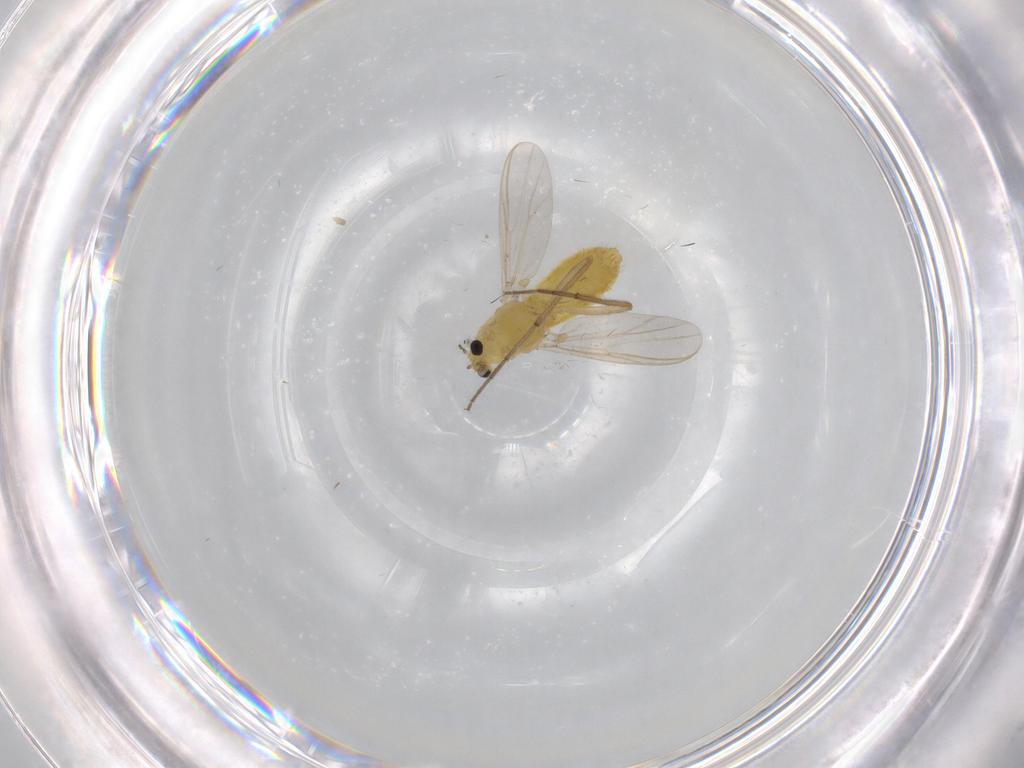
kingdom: Animalia
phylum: Arthropoda
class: Insecta
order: Diptera
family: Chironomidae
